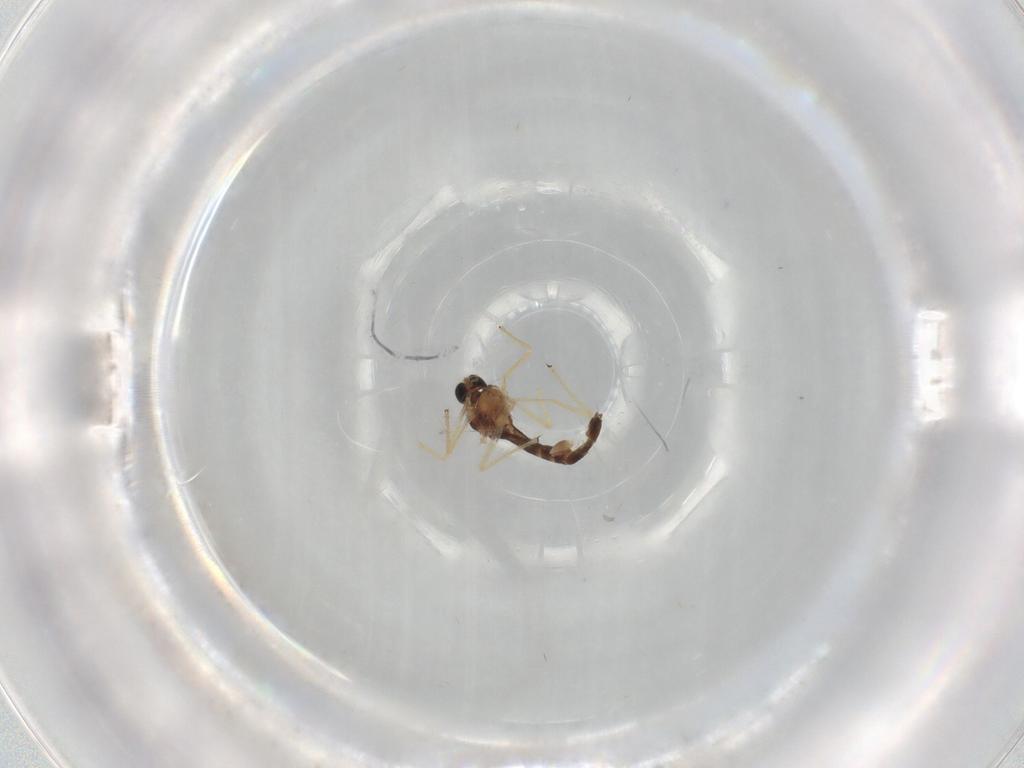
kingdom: Animalia
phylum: Arthropoda
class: Insecta
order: Diptera
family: Chironomidae
